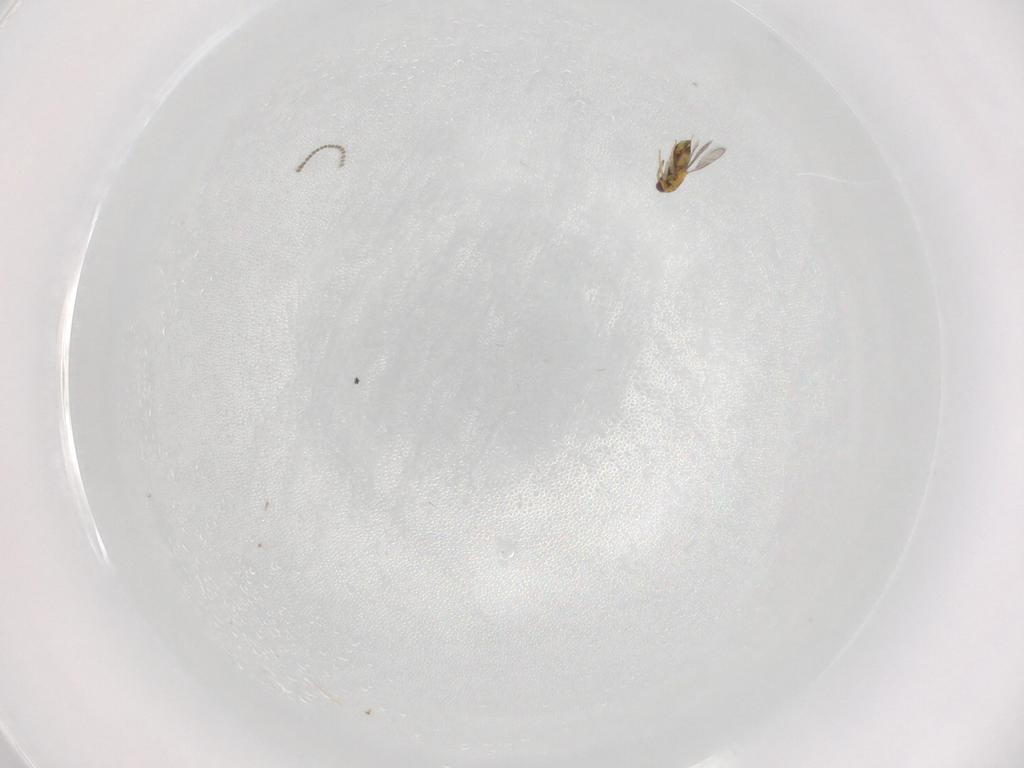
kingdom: Animalia
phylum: Arthropoda
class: Insecta
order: Hymenoptera
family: Aphelinidae
